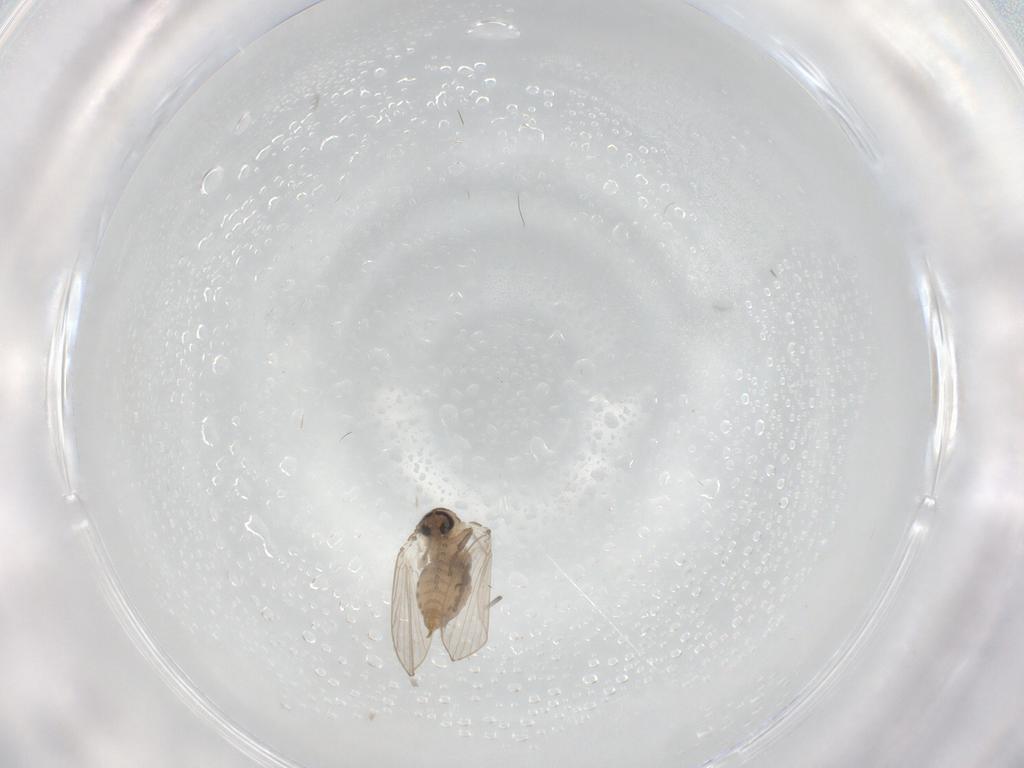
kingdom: Animalia
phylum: Arthropoda
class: Insecta
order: Diptera
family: Psychodidae
